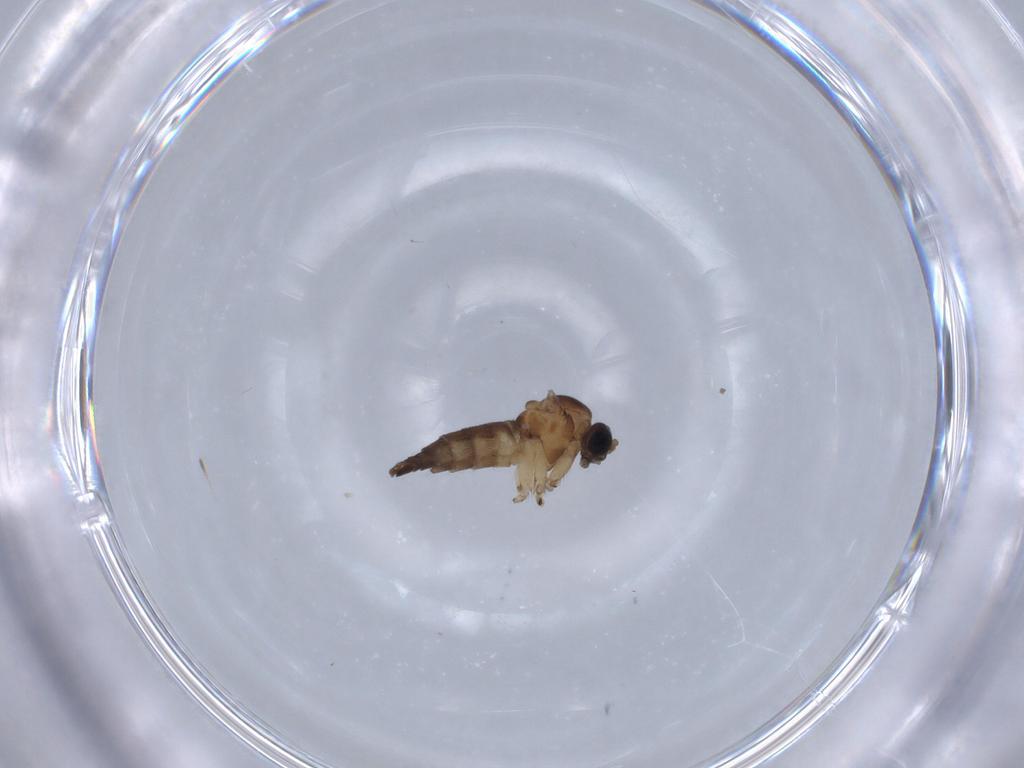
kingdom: Animalia
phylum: Arthropoda
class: Insecta
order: Diptera
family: Sciaridae
